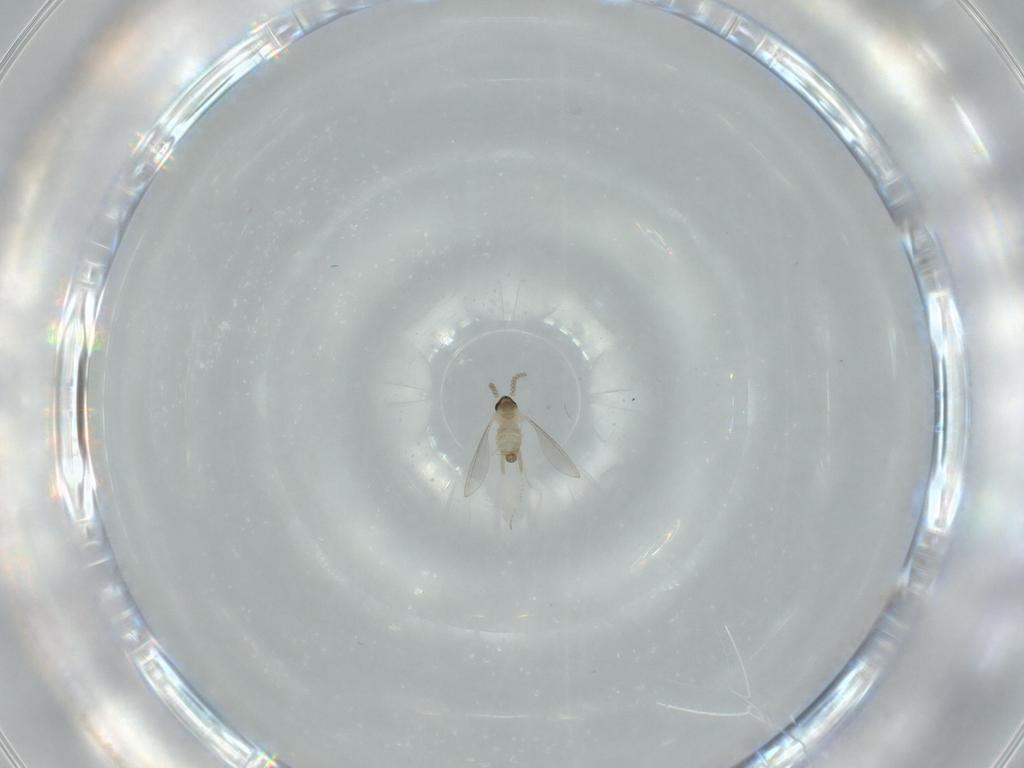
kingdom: Animalia
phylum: Arthropoda
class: Insecta
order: Diptera
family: Cecidomyiidae
